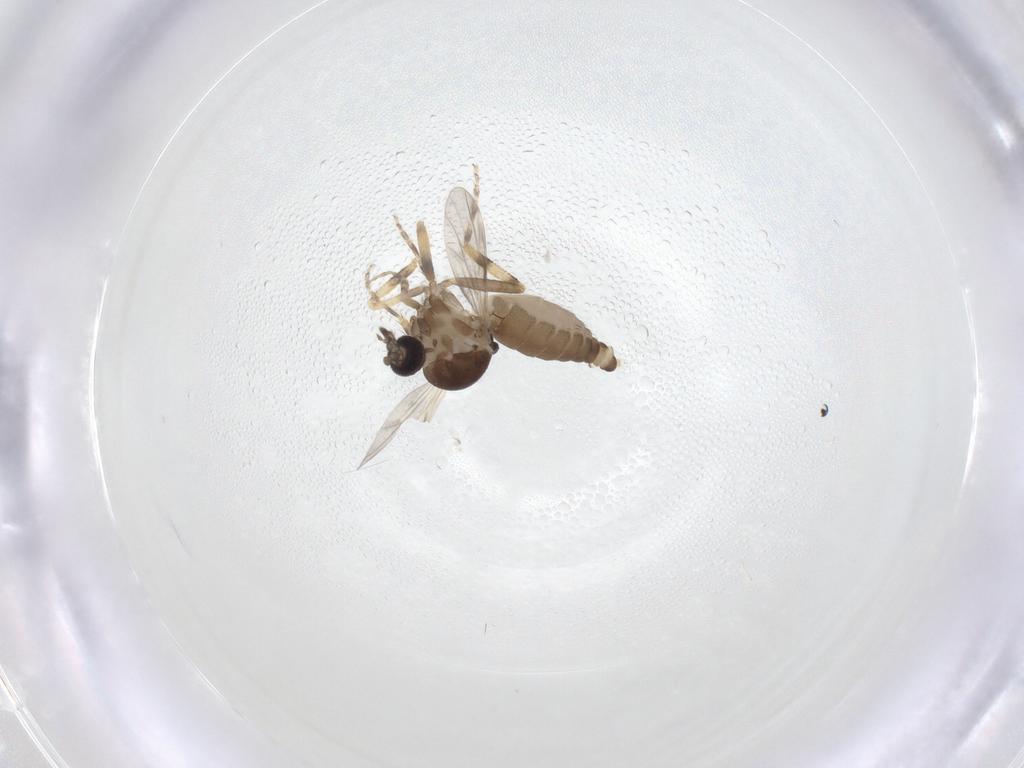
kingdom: Animalia
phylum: Arthropoda
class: Insecta
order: Diptera
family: Ceratopogonidae
